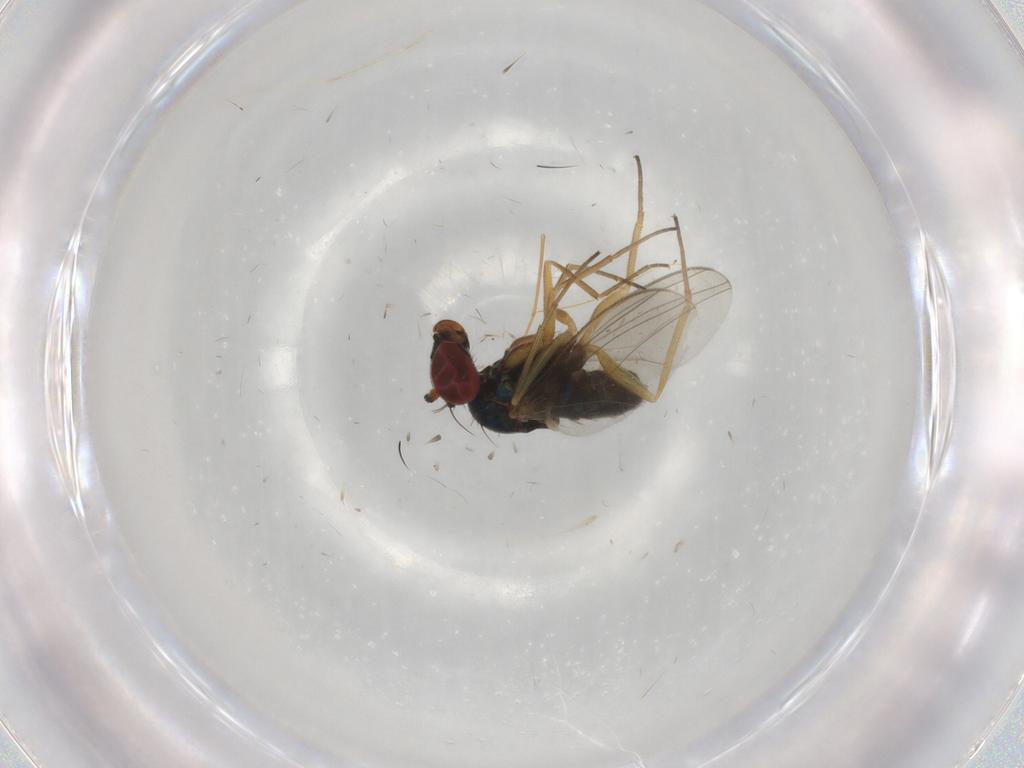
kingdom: Animalia
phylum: Arthropoda
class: Insecta
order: Diptera
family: Dolichopodidae
